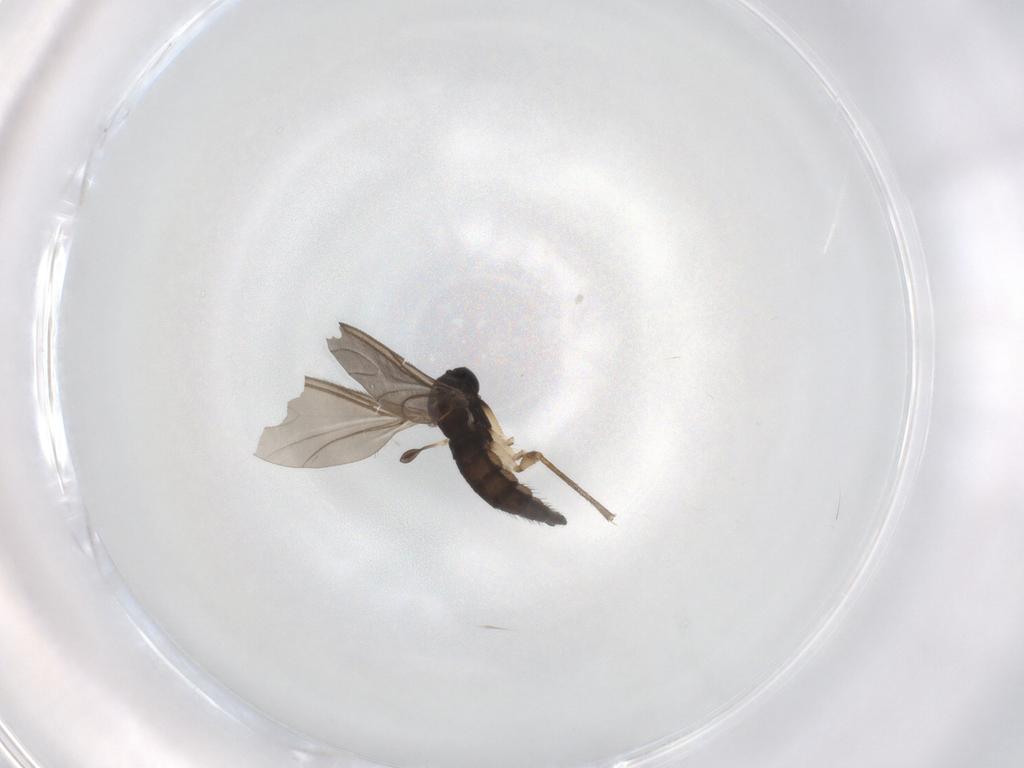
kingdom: Animalia
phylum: Arthropoda
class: Insecta
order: Diptera
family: Sciaridae
